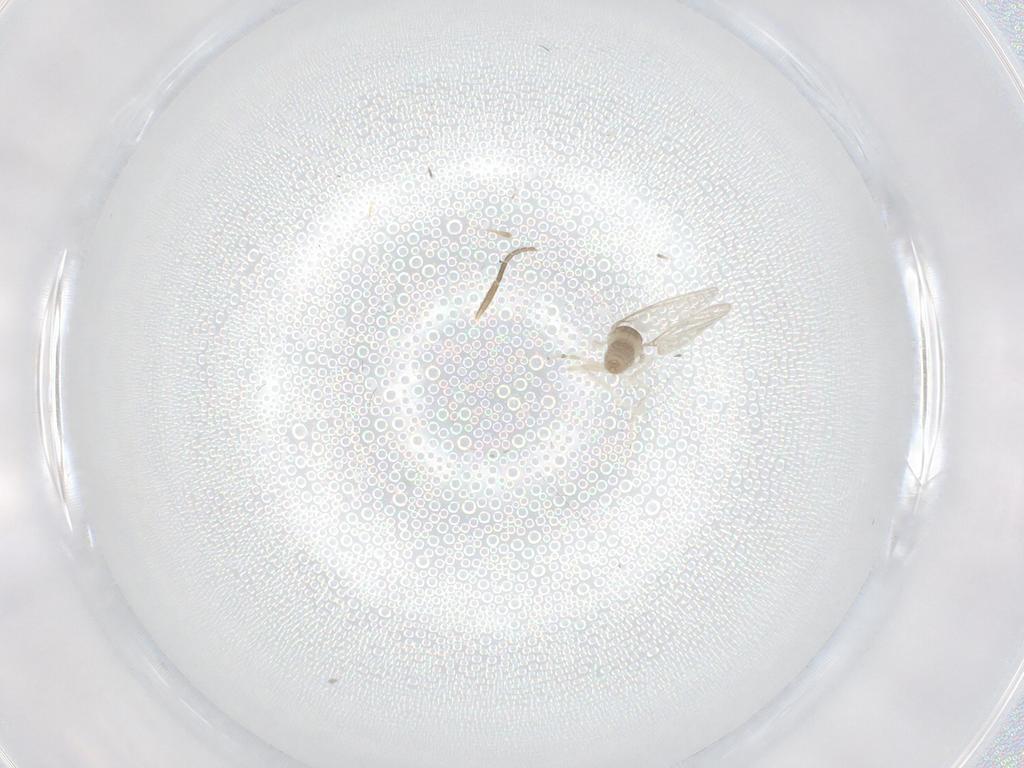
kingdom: Animalia
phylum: Arthropoda
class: Insecta
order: Diptera
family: Phoridae
